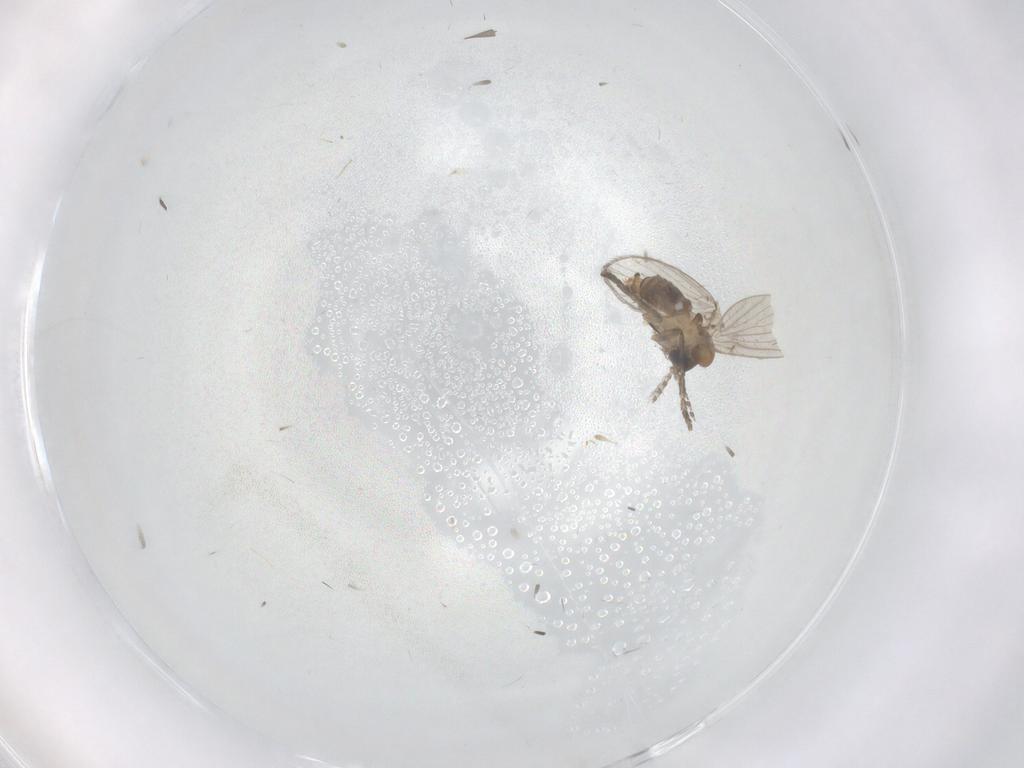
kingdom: Animalia
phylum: Arthropoda
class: Insecta
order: Diptera
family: Chironomidae
